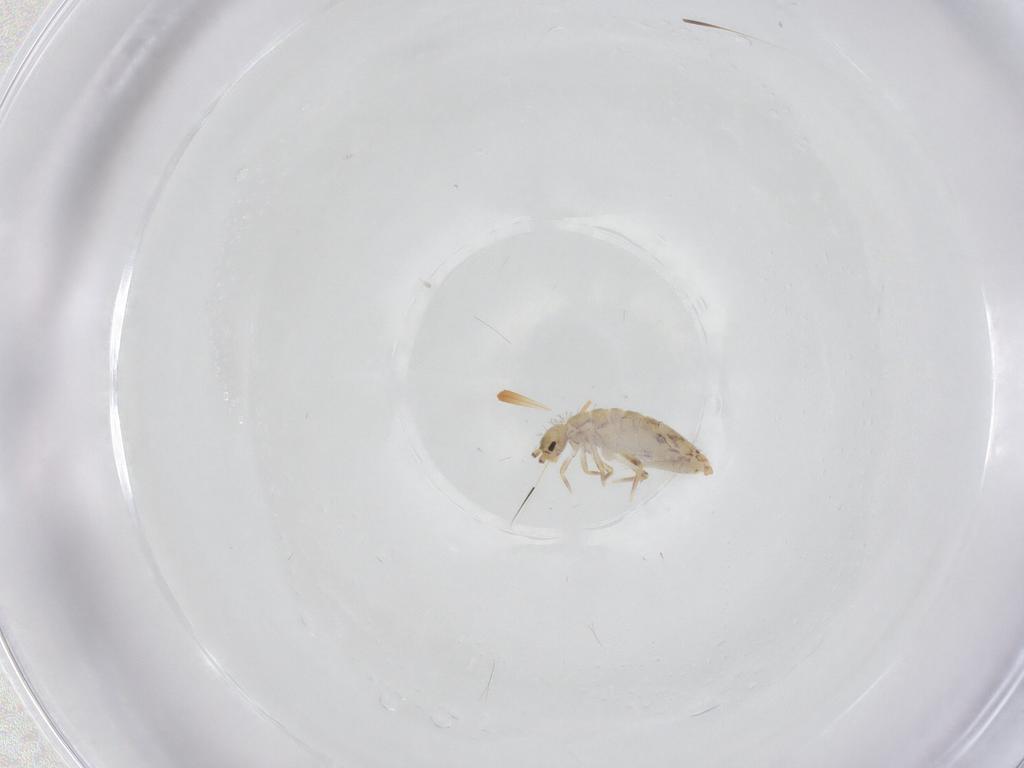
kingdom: Animalia
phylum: Arthropoda
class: Collembola
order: Entomobryomorpha
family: Entomobryidae
